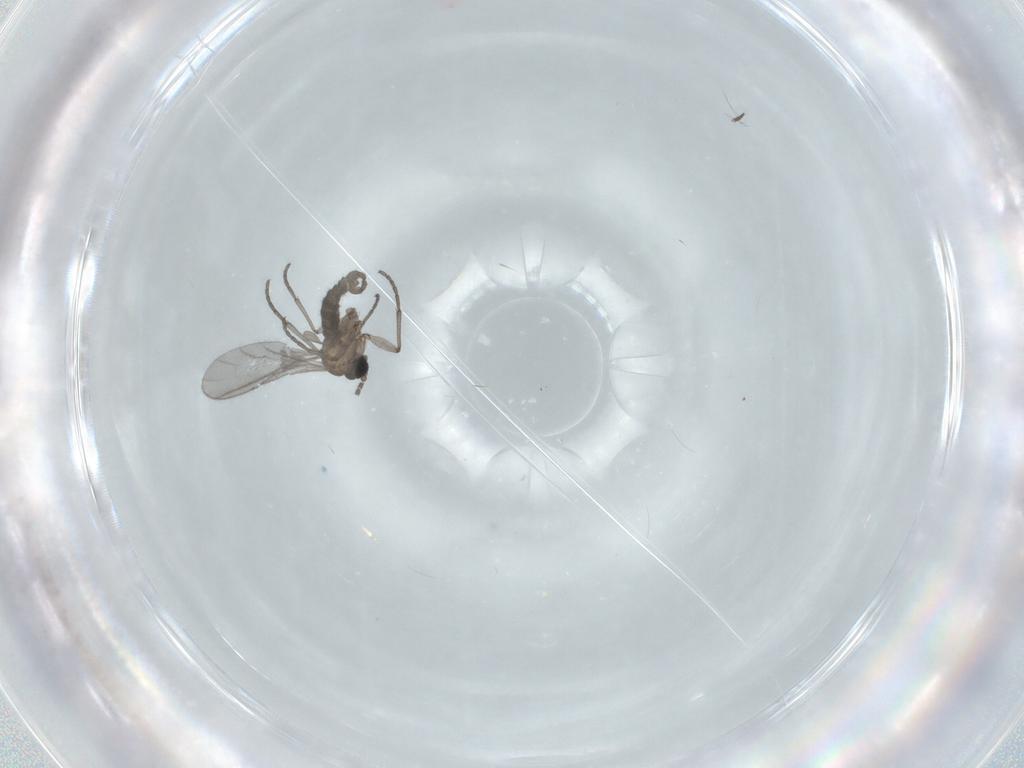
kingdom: Animalia
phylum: Arthropoda
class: Insecta
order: Diptera
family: Sciaridae
